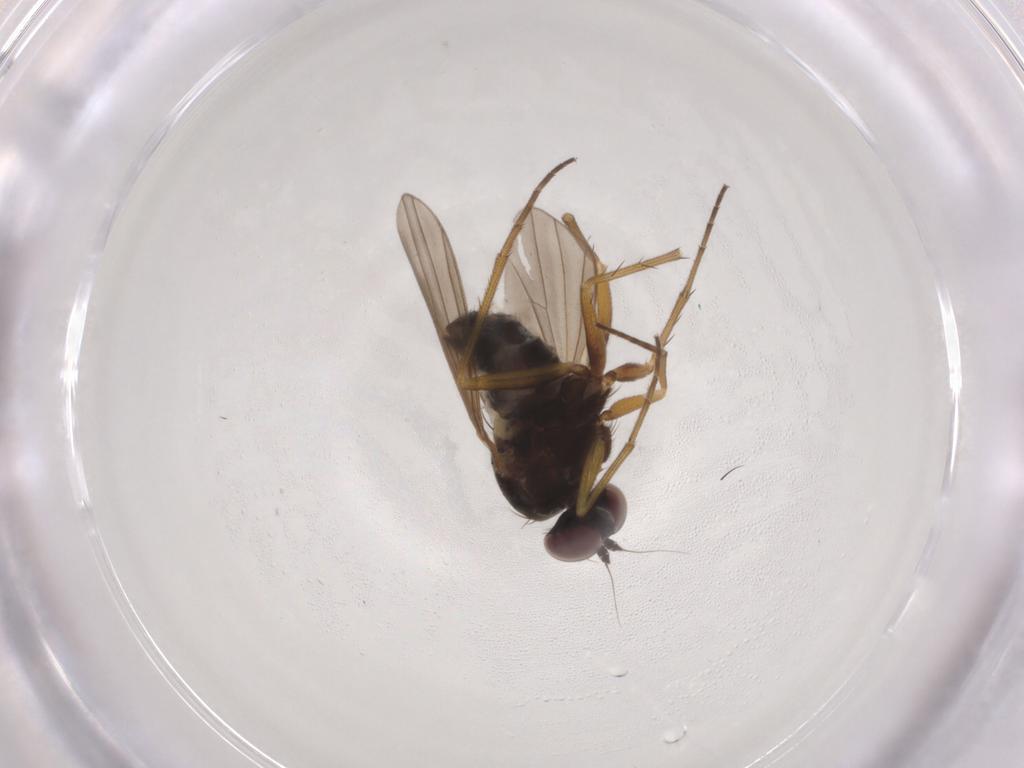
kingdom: Animalia
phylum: Arthropoda
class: Insecta
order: Diptera
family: Dolichopodidae
